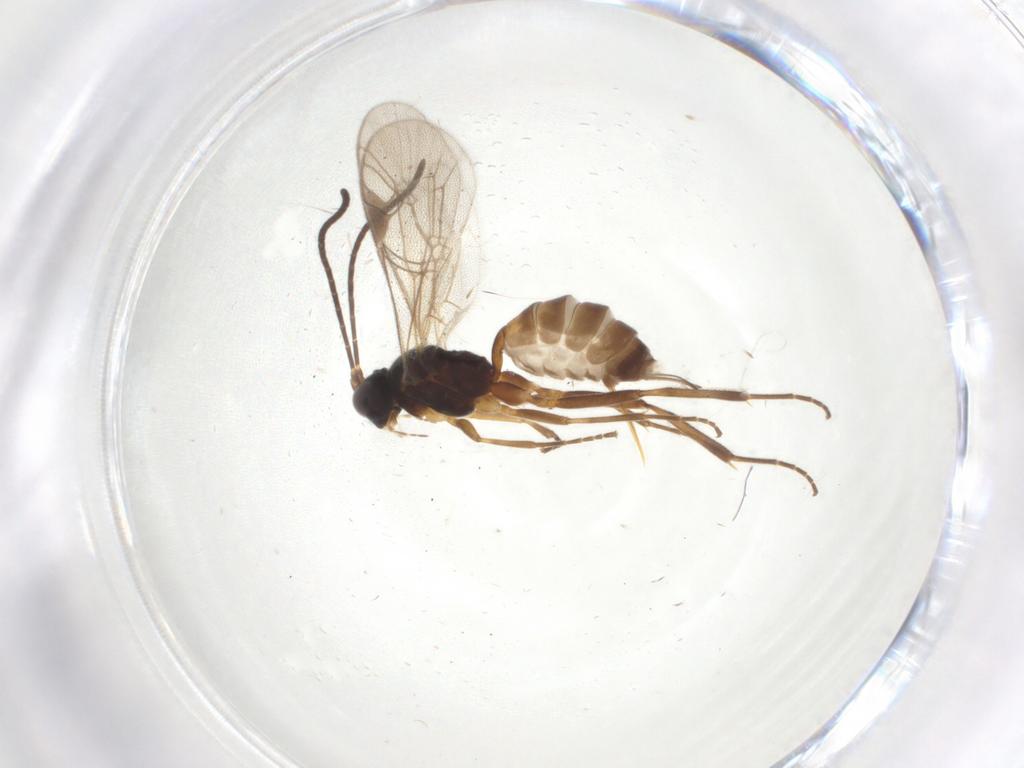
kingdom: Animalia
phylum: Arthropoda
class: Insecta
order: Hymenoptera
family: Ichneumonidae
